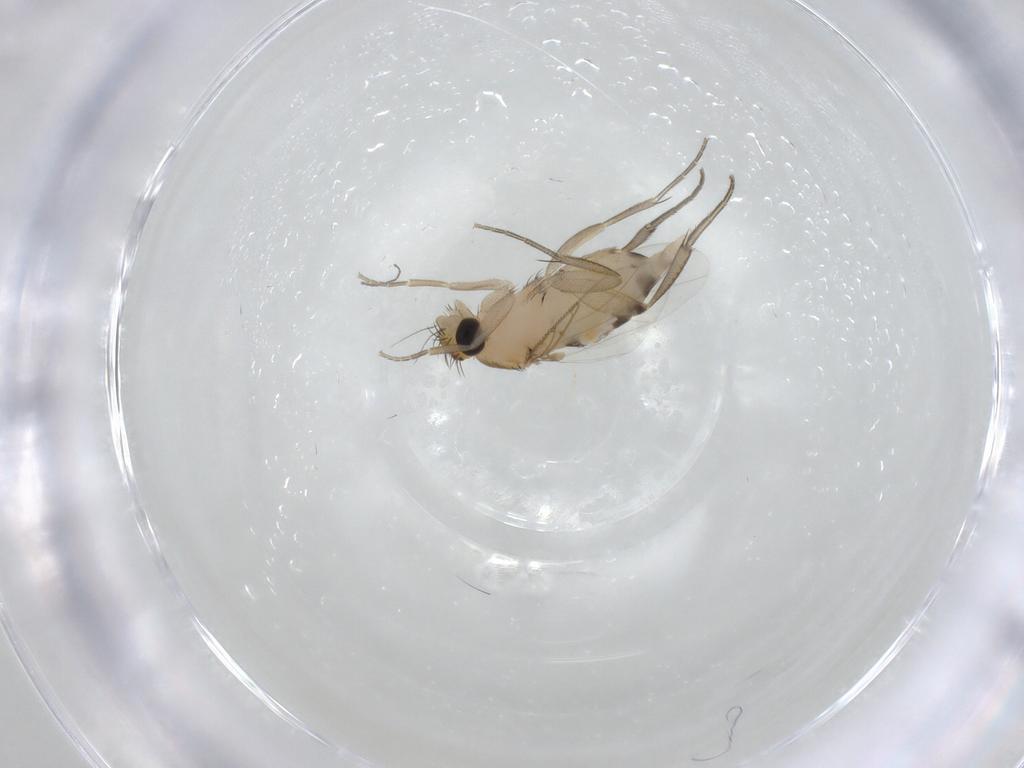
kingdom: Animalia
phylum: Arthropoda
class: Insecta
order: Diptera
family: Cecidomyiidae
